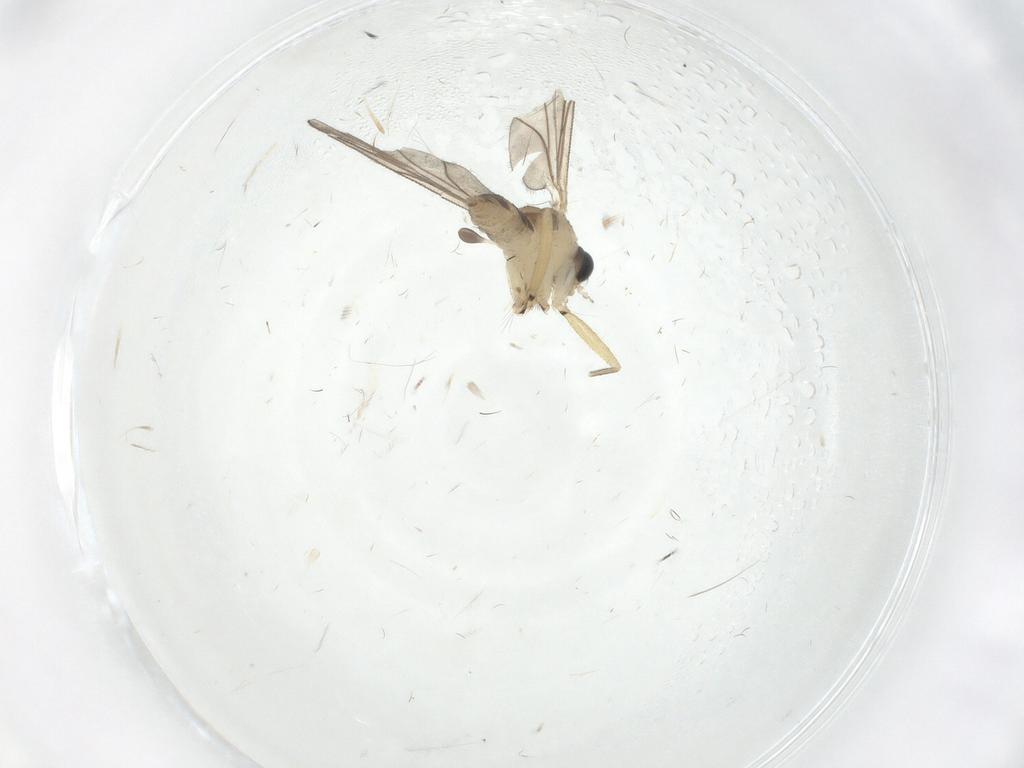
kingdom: Animalia
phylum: Arthropoda
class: Insecta
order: Diptera
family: Sciaridae
